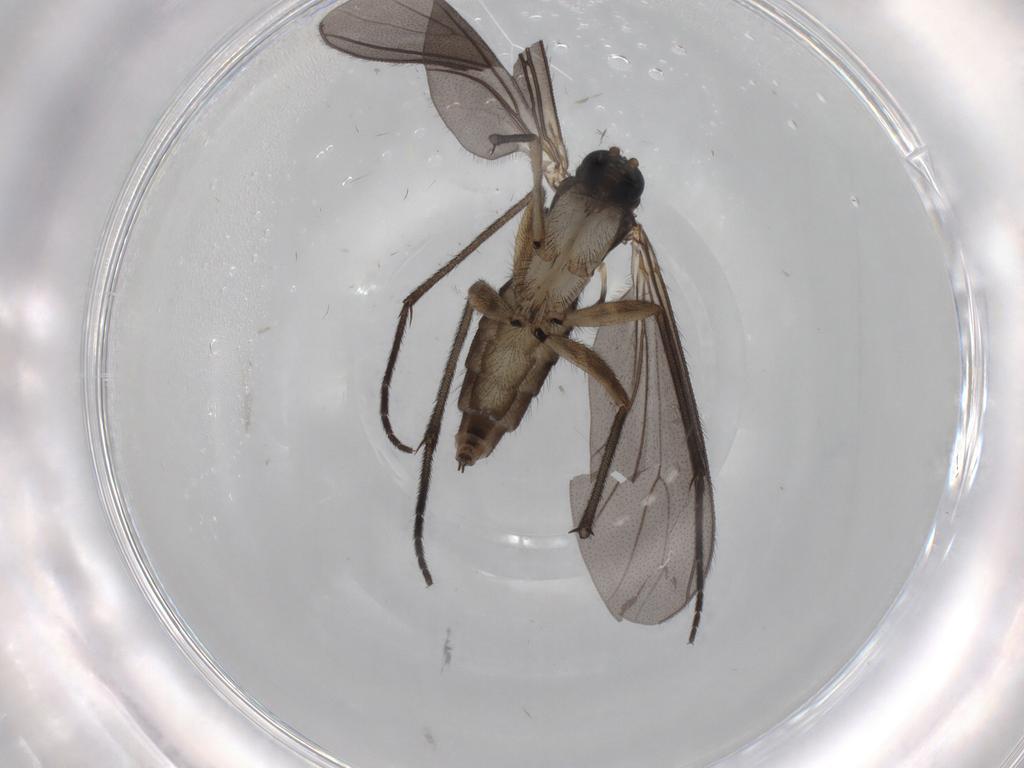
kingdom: Animalia
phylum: Arthropoda
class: Insecta
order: Diptera
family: Sciaridae
